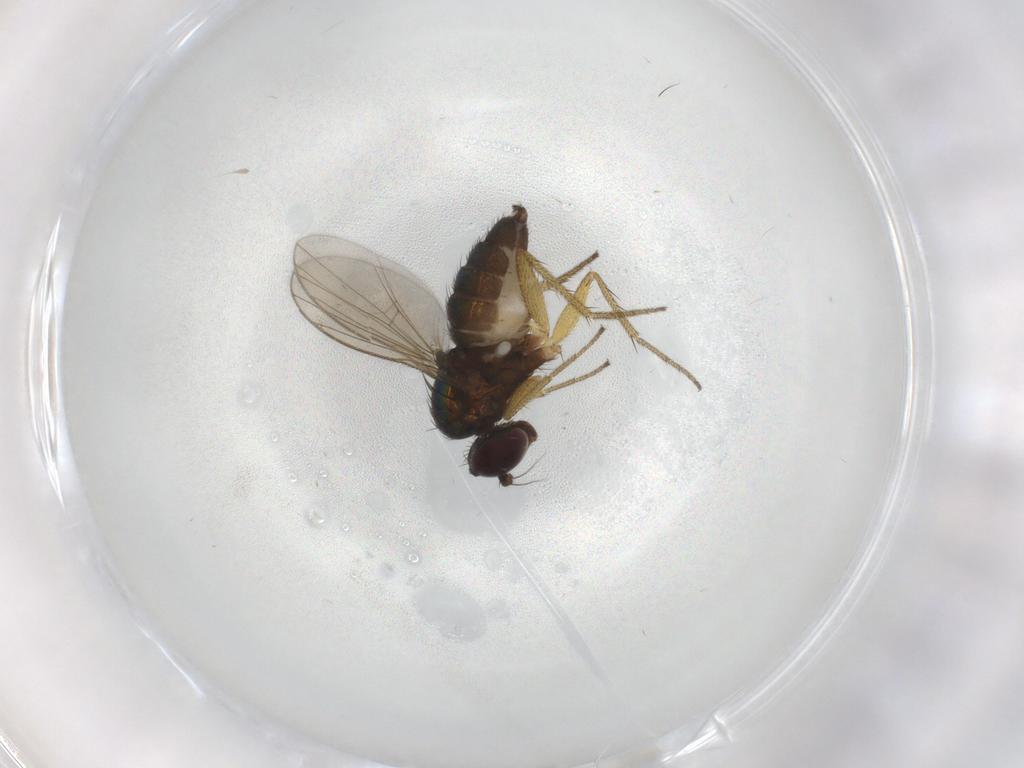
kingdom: Animalia
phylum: Arthropoda
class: Insecta
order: Diptera
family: Dolichopodidae
